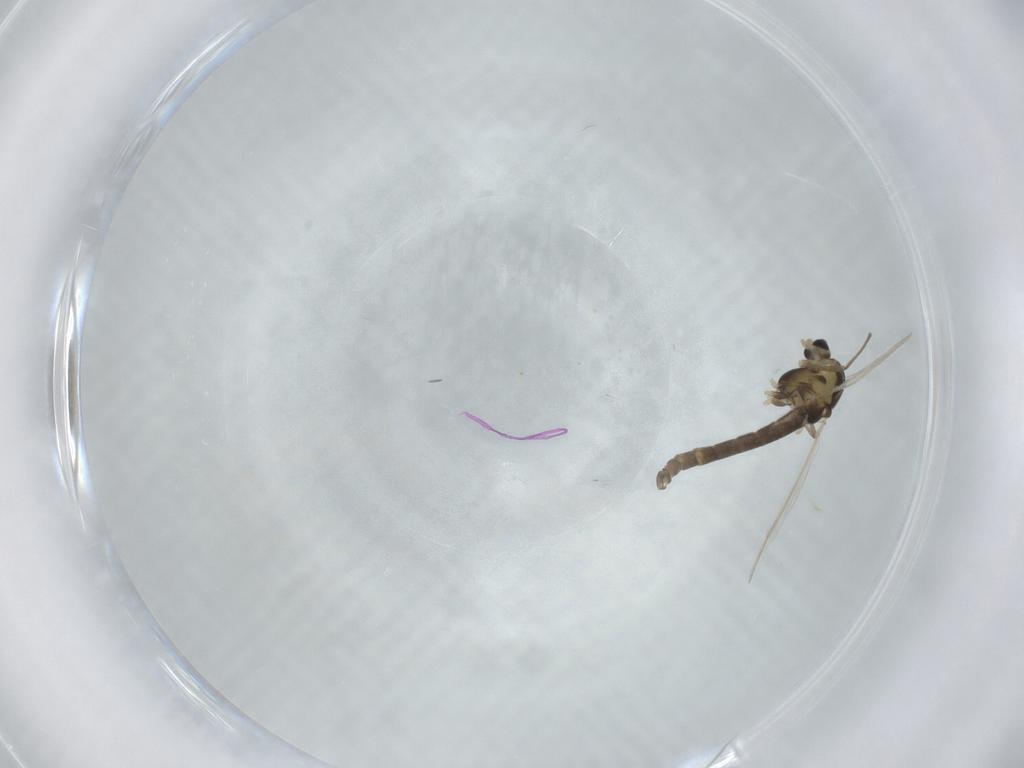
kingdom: Animalia
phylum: Arthropoda
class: Insecta
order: Diptera
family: Chironomidae
